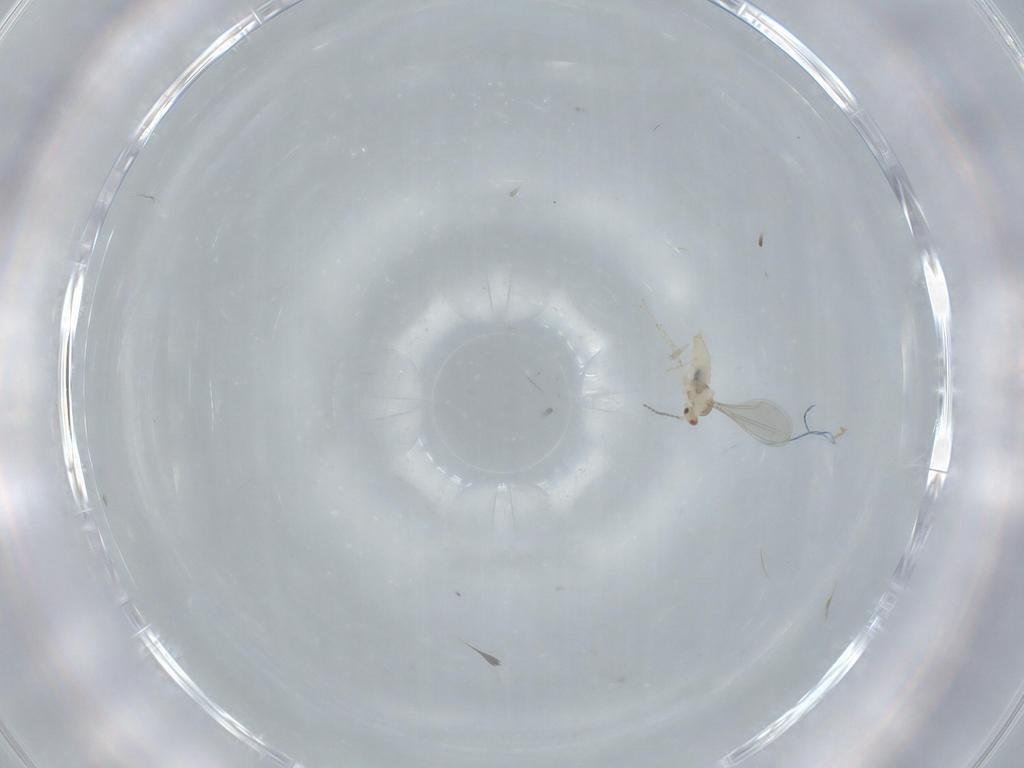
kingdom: Animalia
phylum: Arthropoda
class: Insecta
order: Diptera
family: Cecidomyiidae
